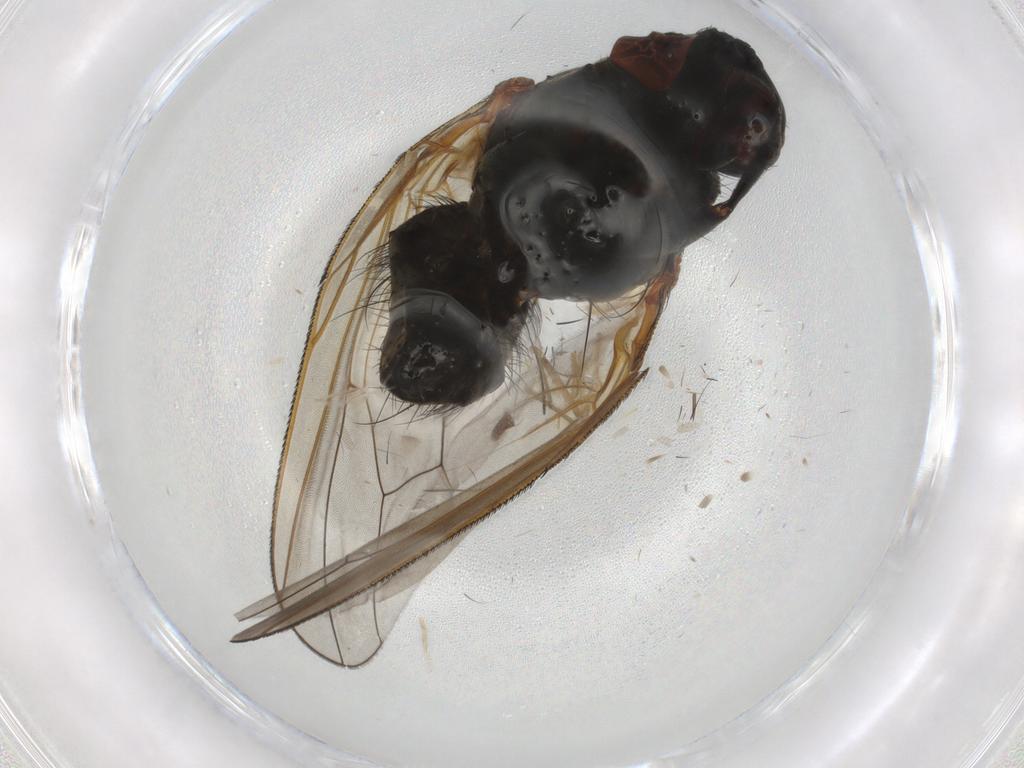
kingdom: Animalia
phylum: Arthropoda
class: Insecta
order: Diptera
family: Anthomyiidae
